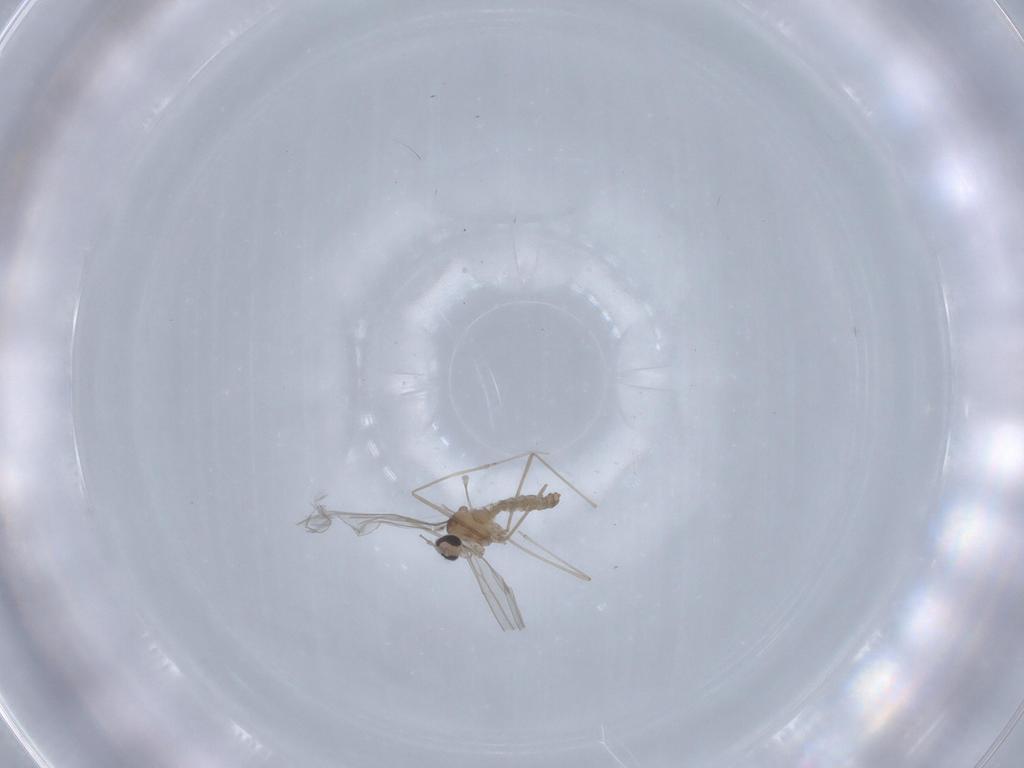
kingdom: Animalia
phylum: Arthropoda
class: Insecta
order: Diptera
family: Cecidomyiidae
